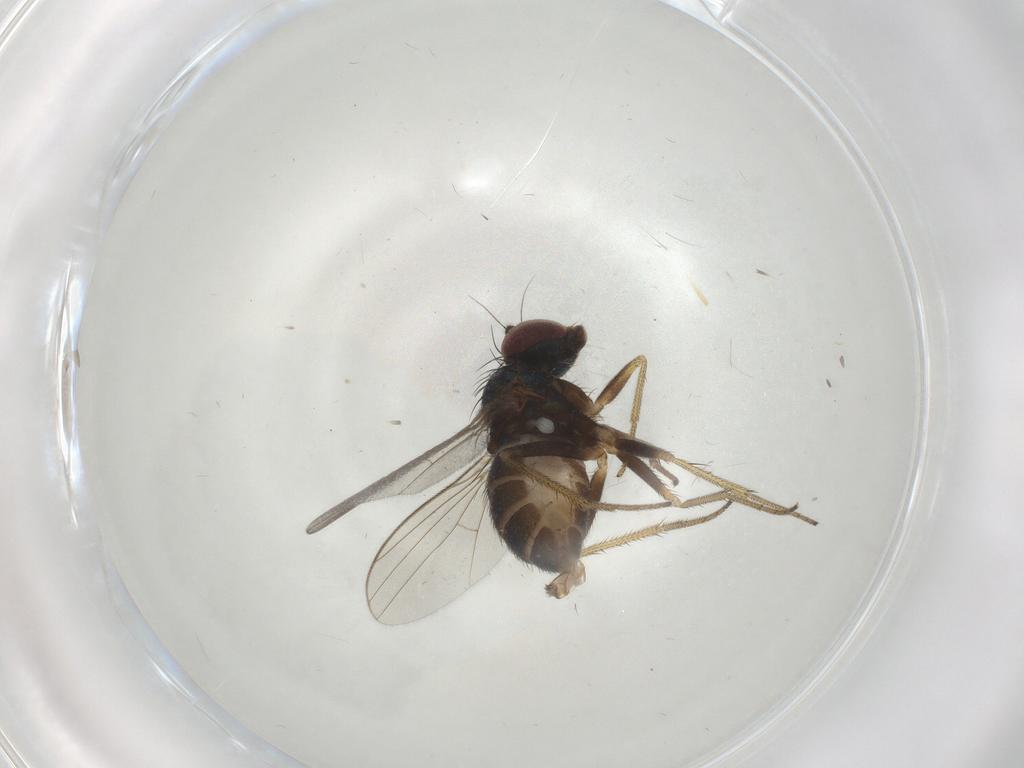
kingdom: Animalia
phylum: Arthropoda
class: Insecta
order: Diptera
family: Dolichopodidae
